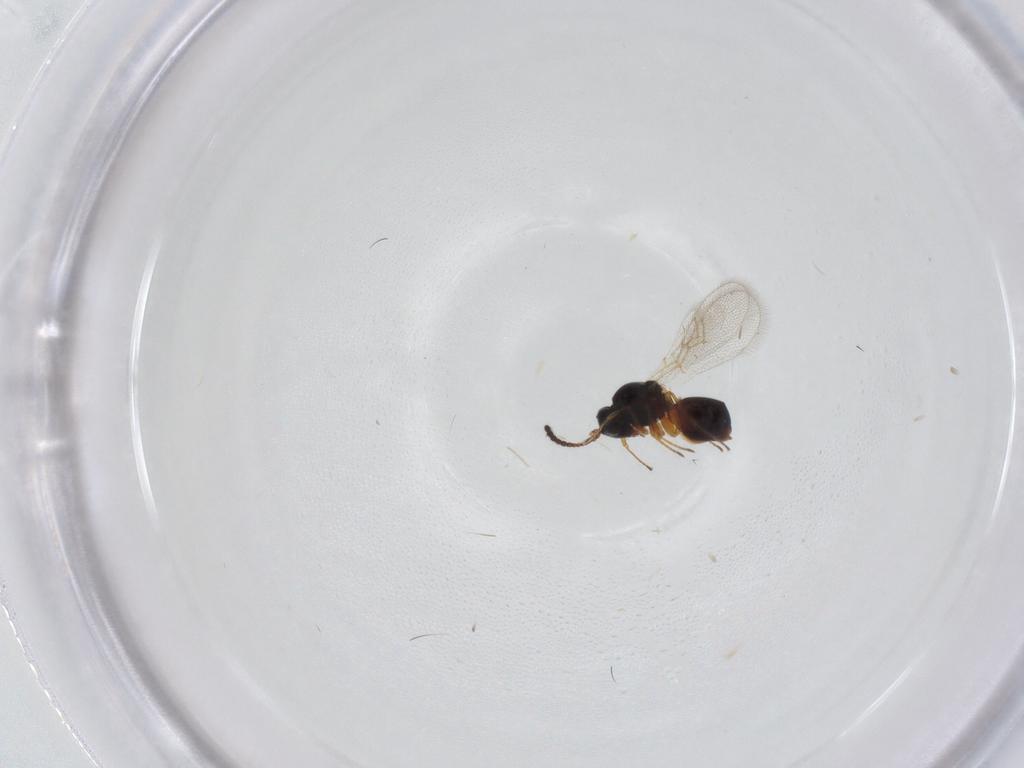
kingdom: Animalia
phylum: Arthropoda
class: Insecta
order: Hymenoptera
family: Figitidae
